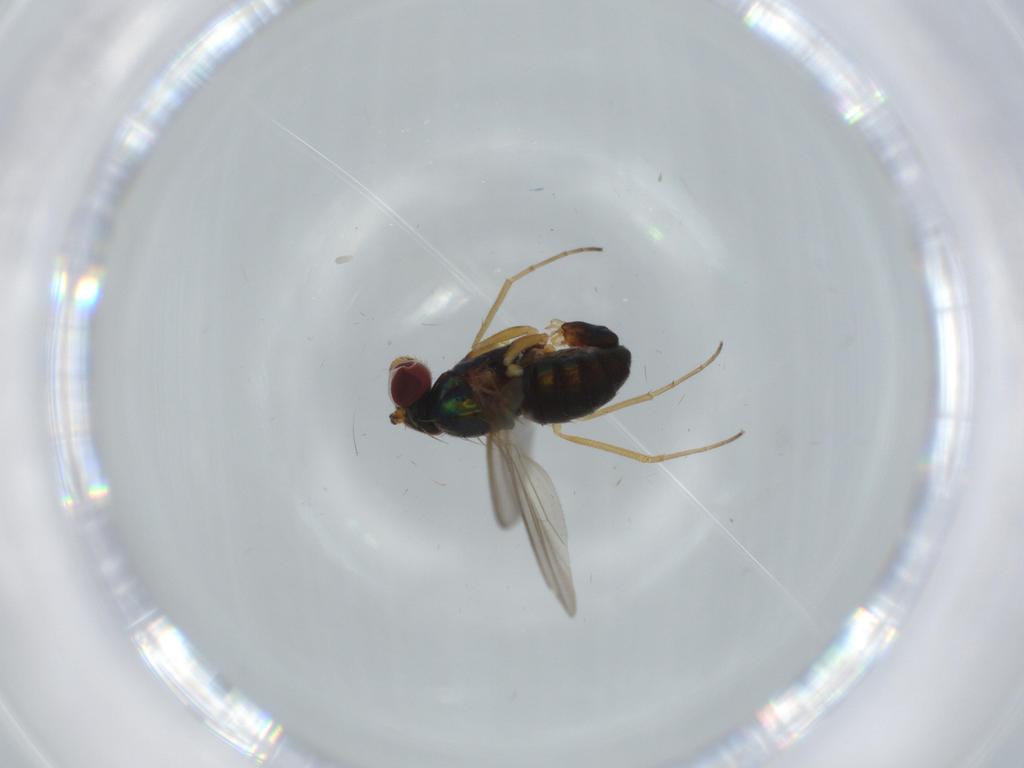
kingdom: Animalia
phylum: Arthropoda
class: Insecta
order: Diptera
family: Dolichopodidae
